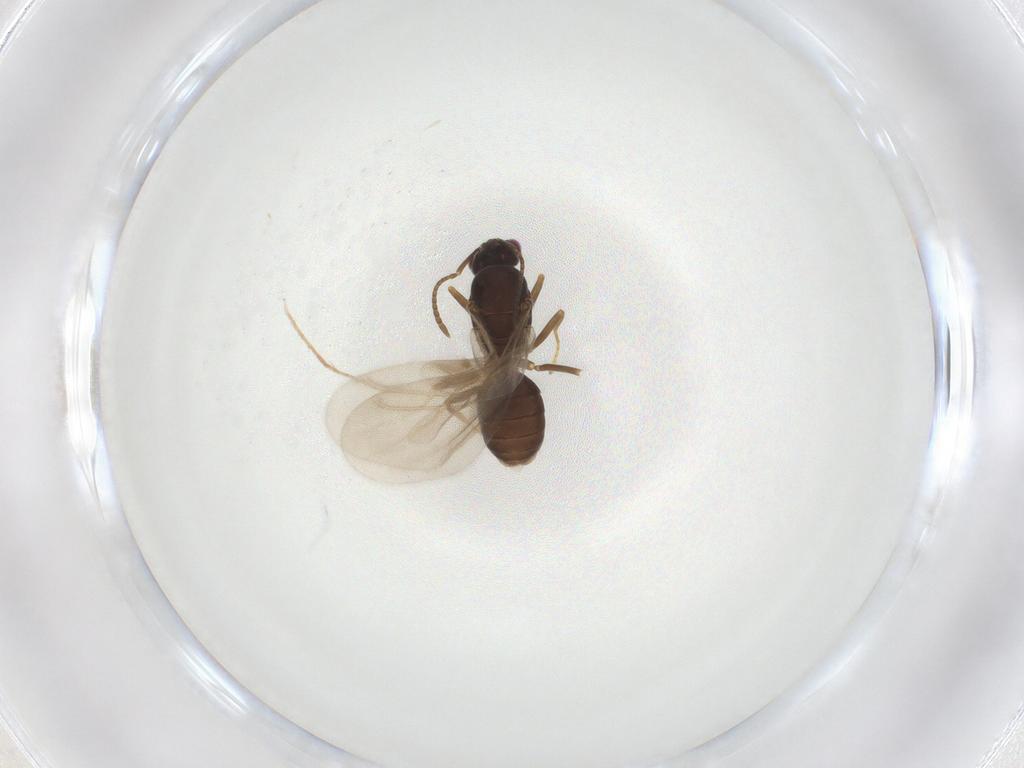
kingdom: Animalia
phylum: Arthropoda
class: Insecta
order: Hymenoptera
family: Formicidae
